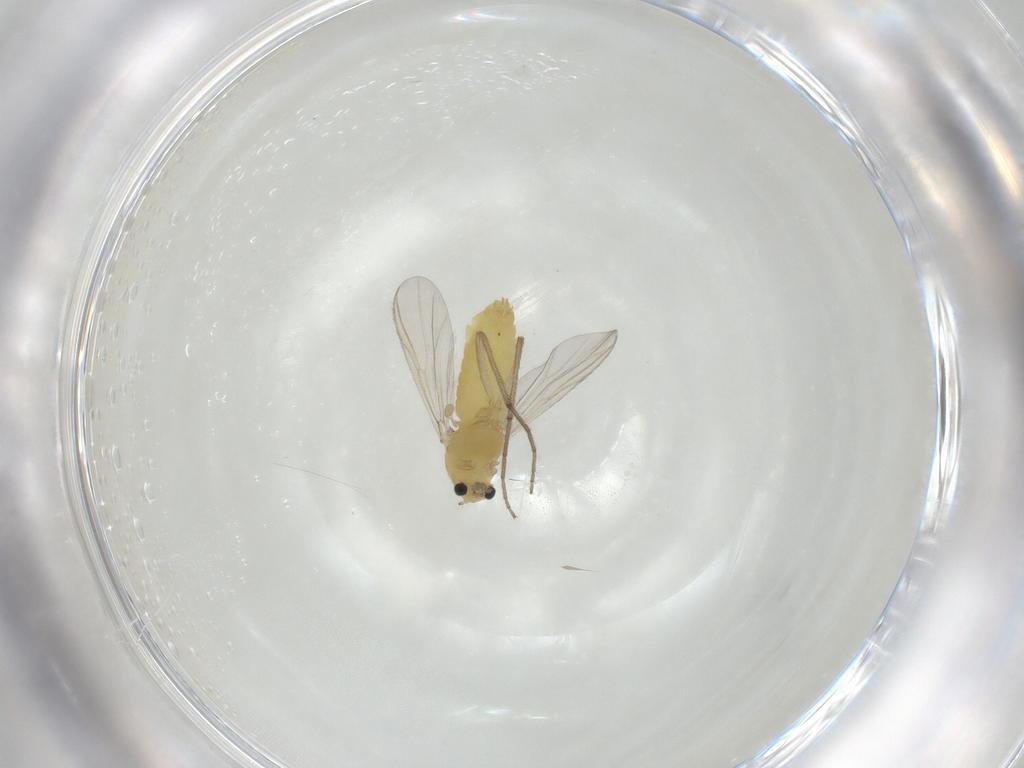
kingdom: Animalia
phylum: Arthropoda
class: Insecta
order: Diptera
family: Chironomidae
